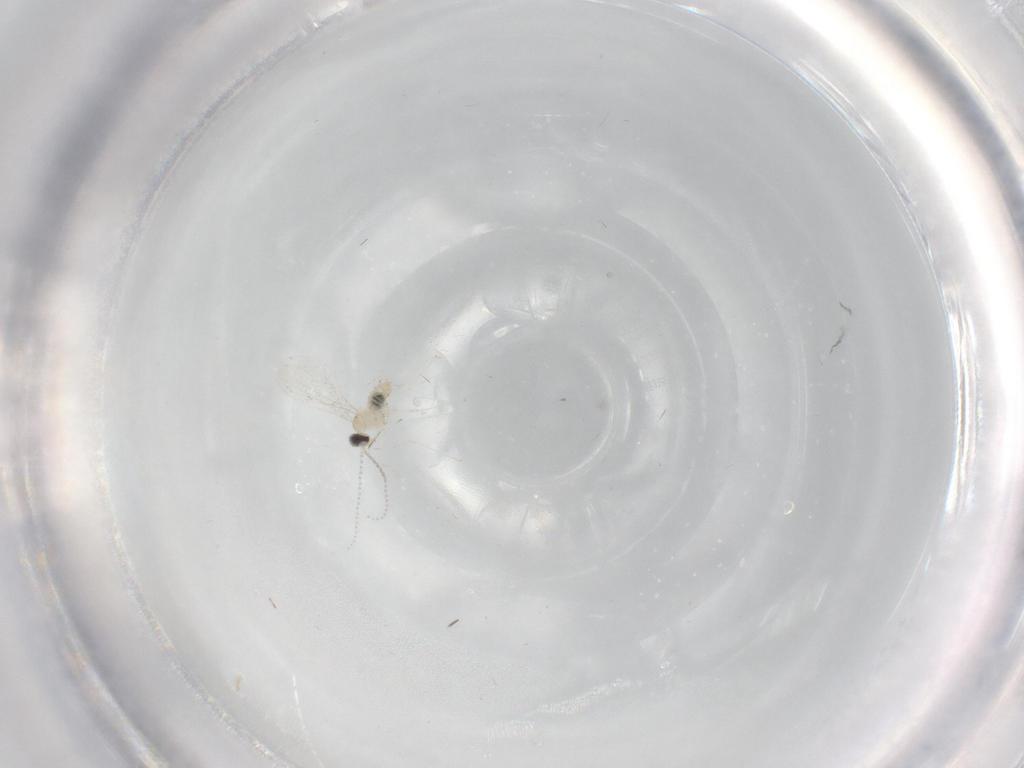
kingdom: Animalia
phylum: Arthropoda
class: Insecta
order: Diptera
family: Cecidomyiidae
